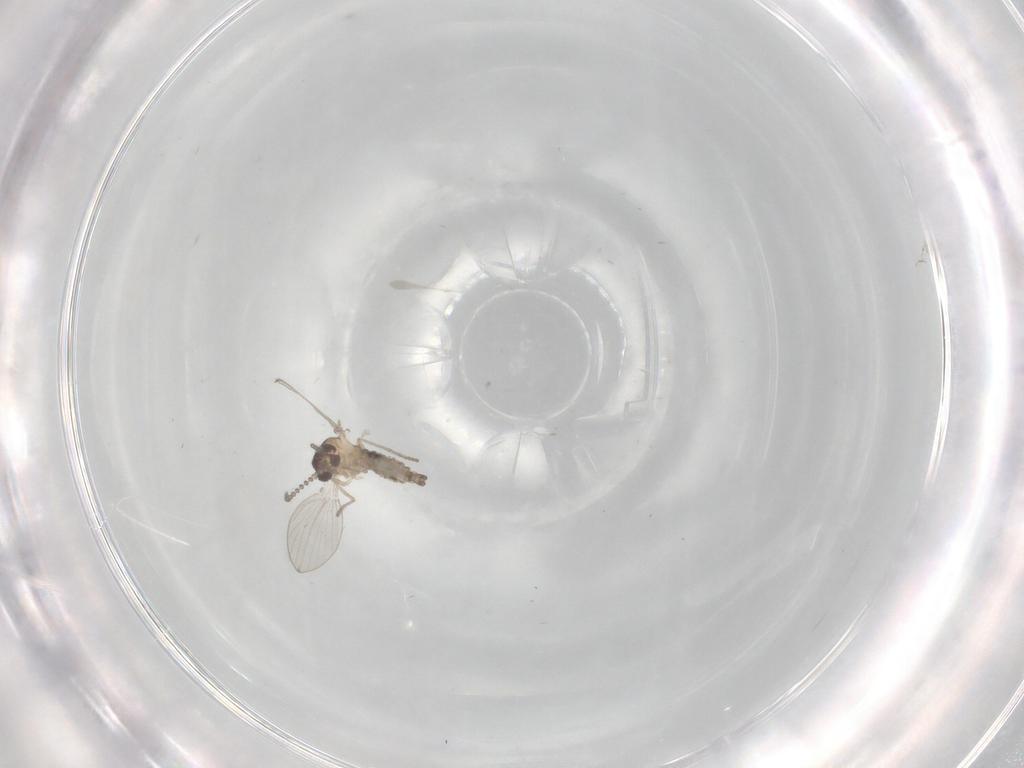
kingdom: Animalia
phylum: Arthropoda
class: Insecta
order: Diptera
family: Psychodidae
